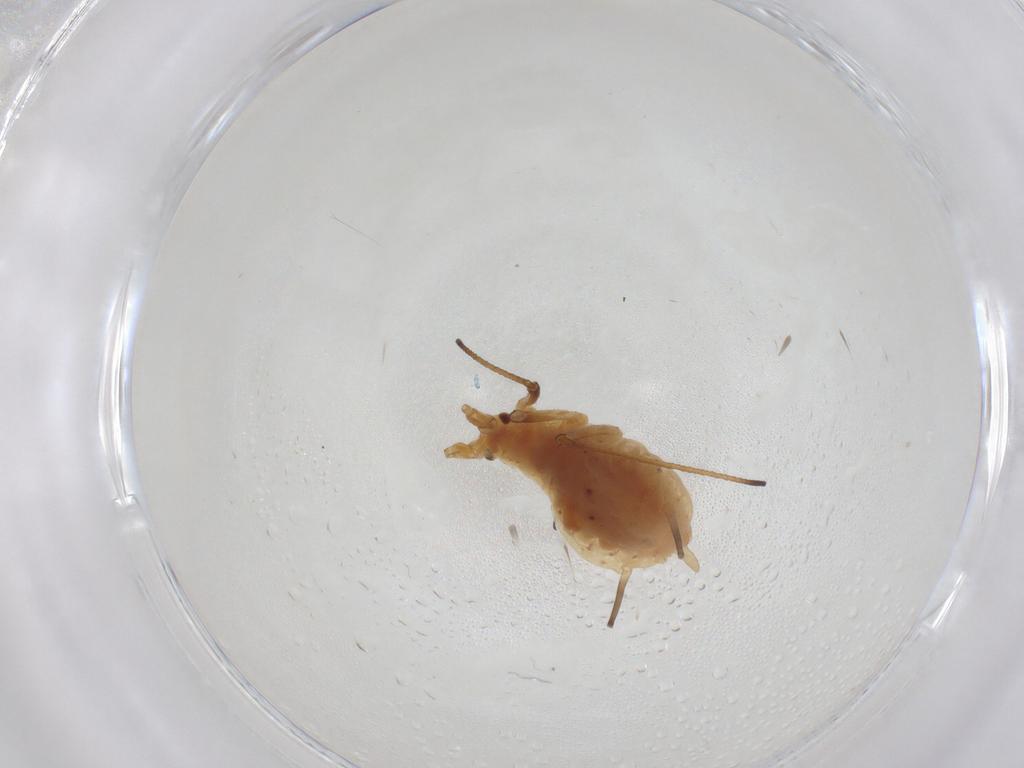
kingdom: Animalia
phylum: Arthropoda
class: Insecta
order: Hemiptera
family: Aphididae
